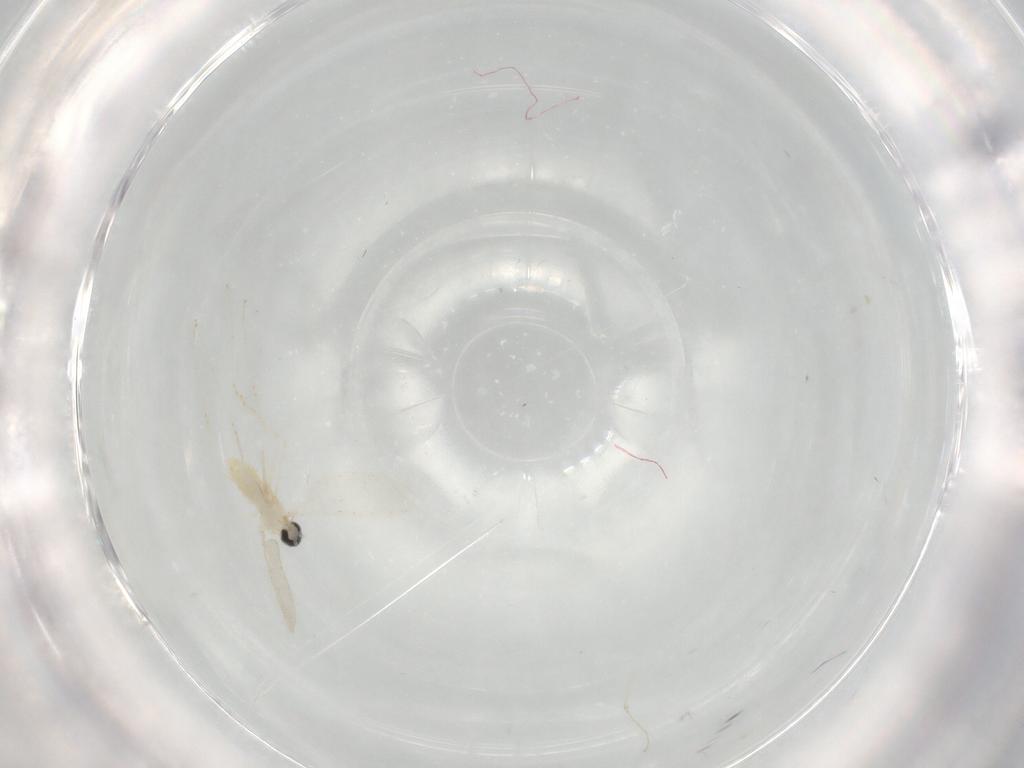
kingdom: Animalia
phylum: Arthropoda
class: Insecta
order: Diptera
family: Cecidomyiidae
